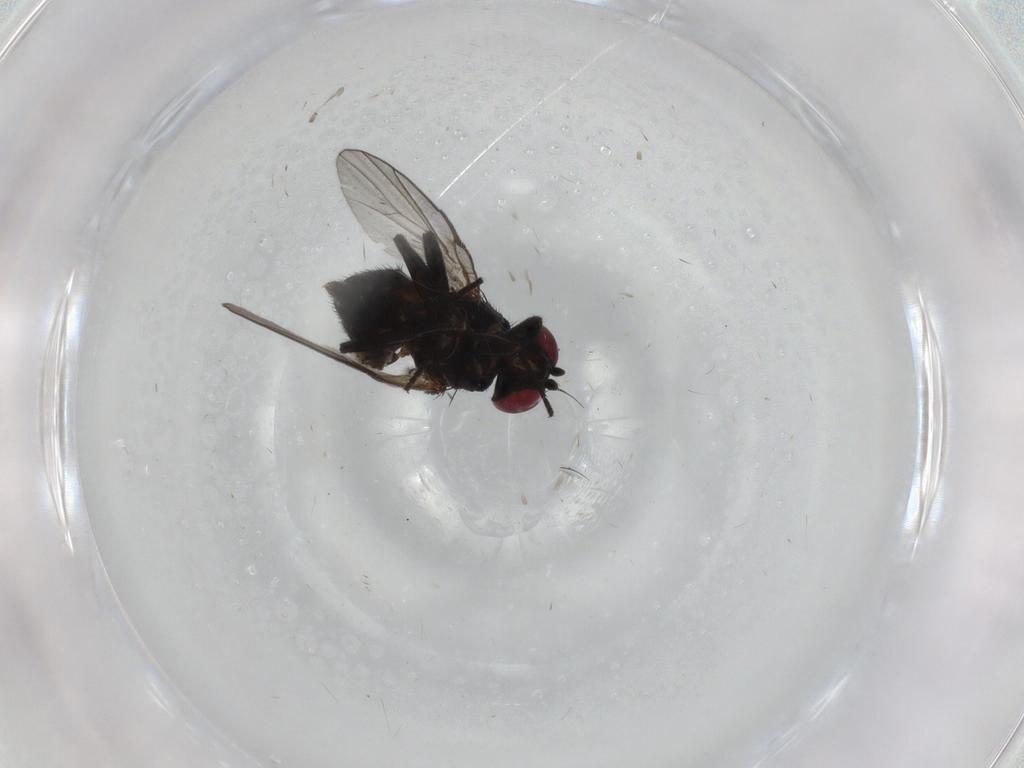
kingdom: Animalia
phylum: Arthropoda
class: Insecta
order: Diptera
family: Agromyzidae
